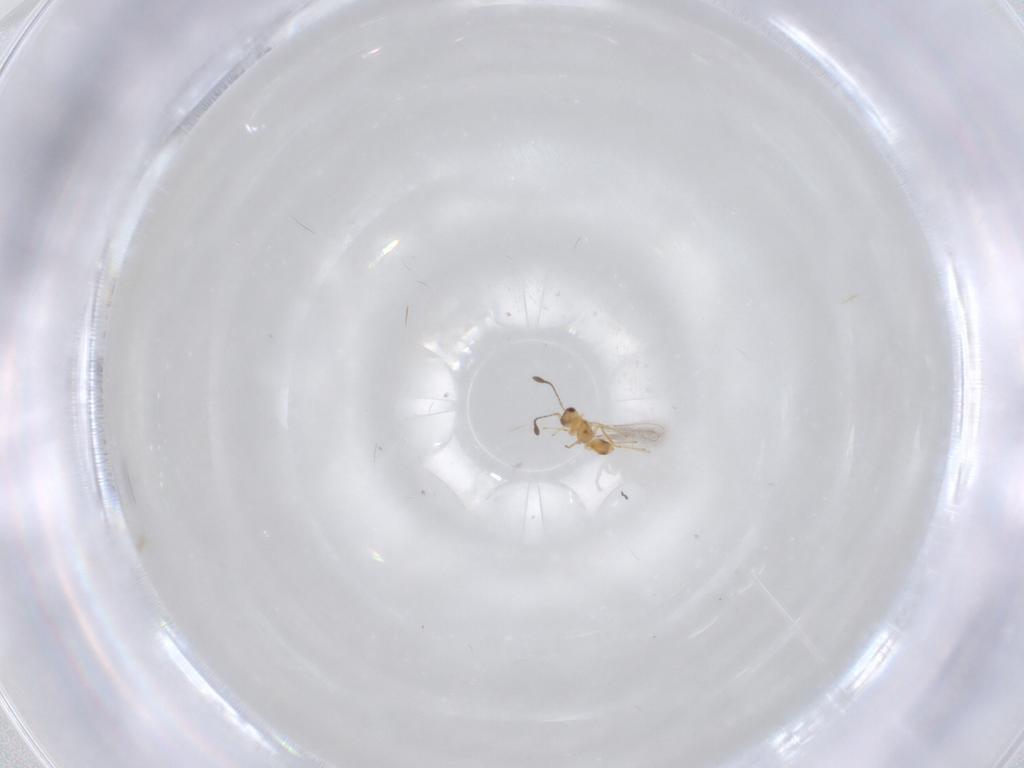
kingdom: Animalia
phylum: Arthropoda
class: Insecta
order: Hymenoptera
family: Mymaridae
